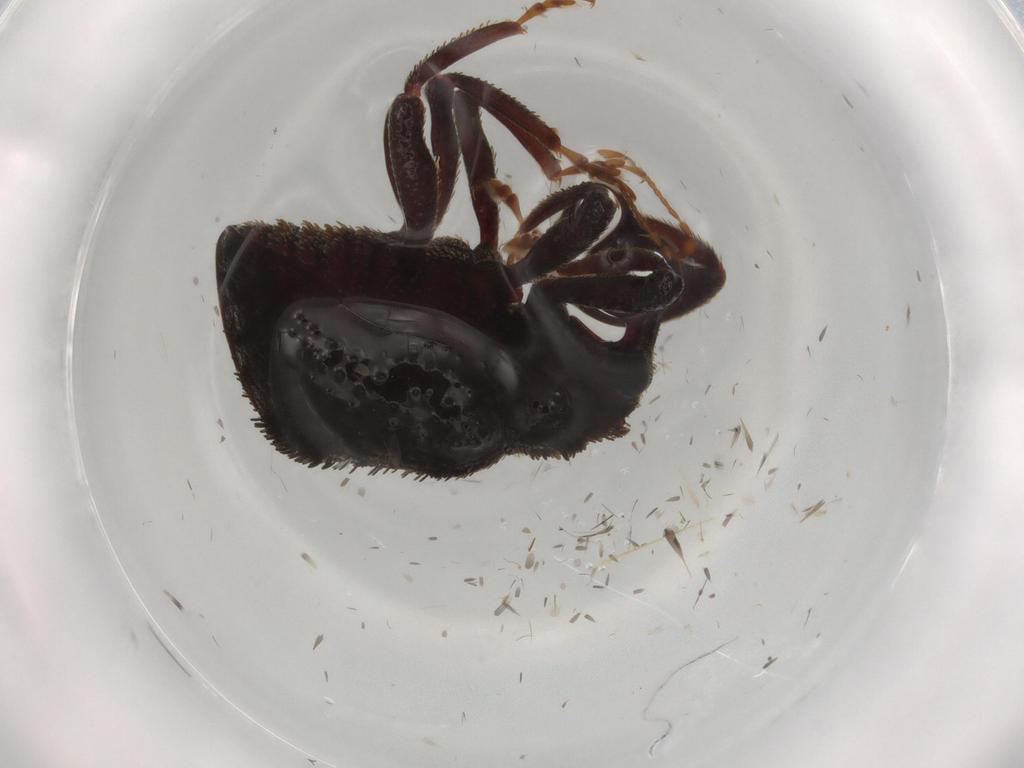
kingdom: Animalia
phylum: Arthropoda
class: Insecta
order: Coleoptera
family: Curculionidae
